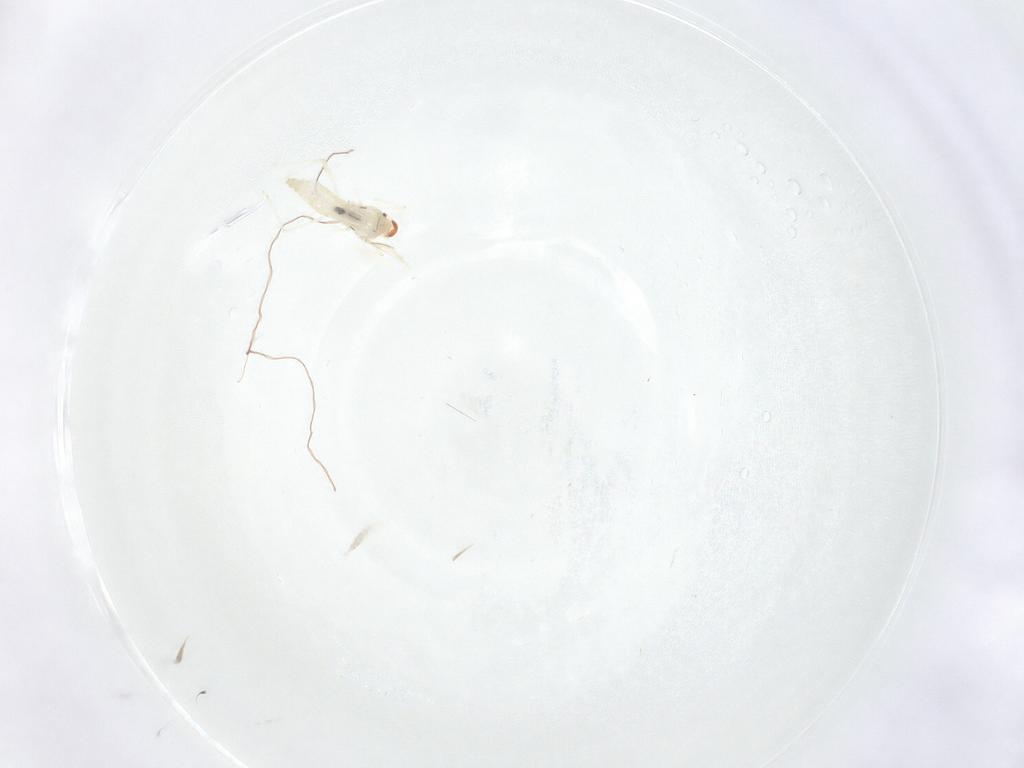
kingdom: Animalia
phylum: Arthropoda
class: Insecta
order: Diptera
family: Cecidomyiidae
